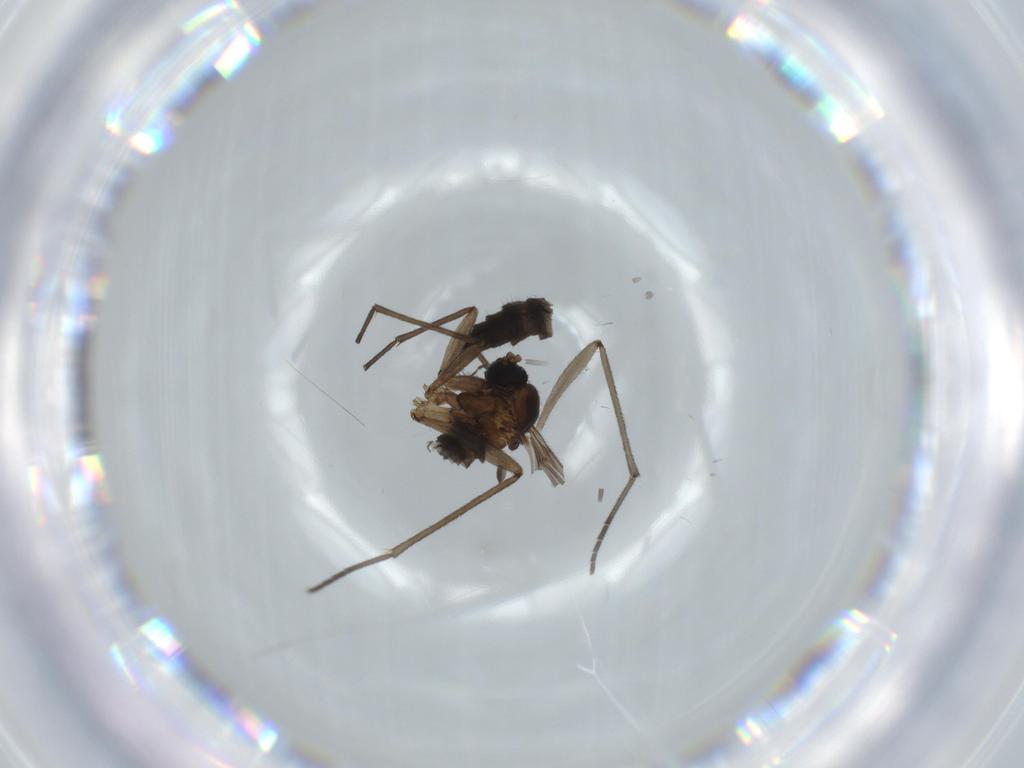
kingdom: Animalia
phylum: Arthropoda
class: Insecta
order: Diptera
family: Sciaridae
